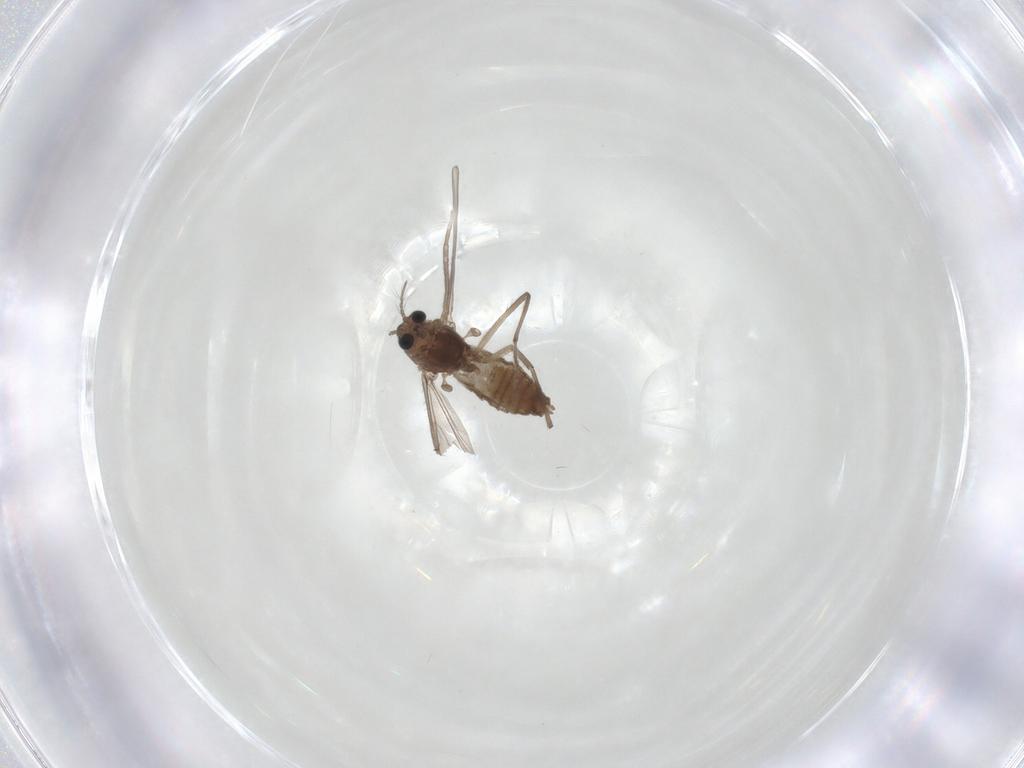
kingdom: Animalia
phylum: Arthropoda
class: Insecta
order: Diptera
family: Chironomidae
